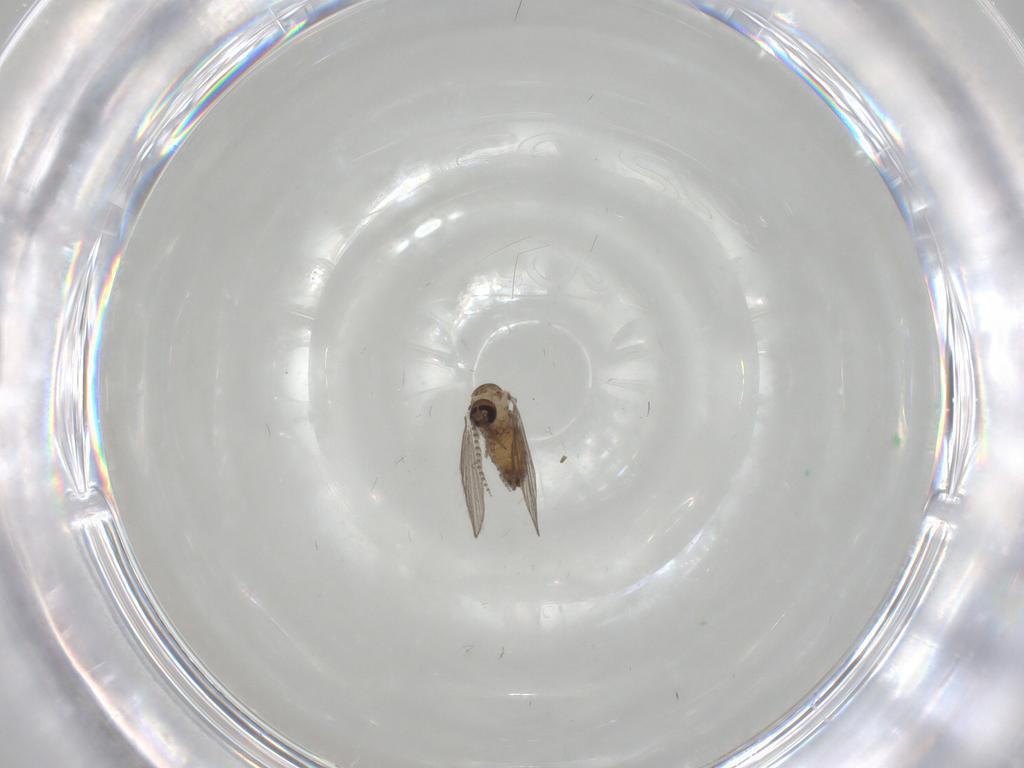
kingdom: Animalia
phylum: Arthropoda
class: Insecta
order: Diptera
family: Psychodidae
